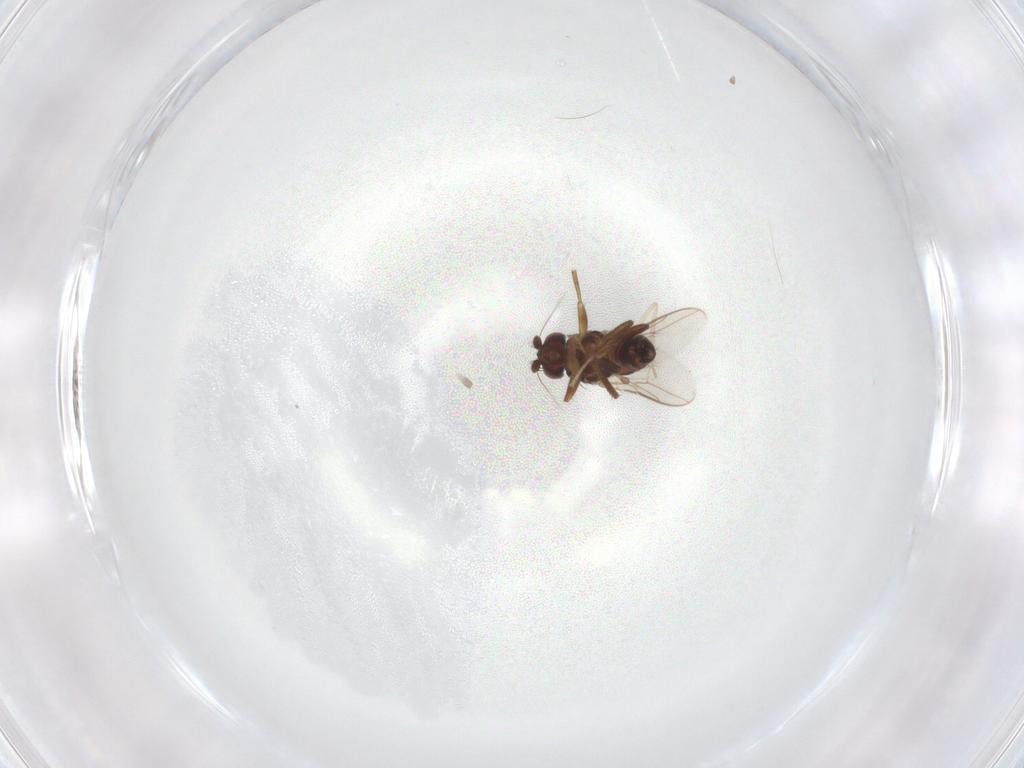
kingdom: Animalia
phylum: Arthropoda
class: Insecta
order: Diptera
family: Sphaeroceridae
